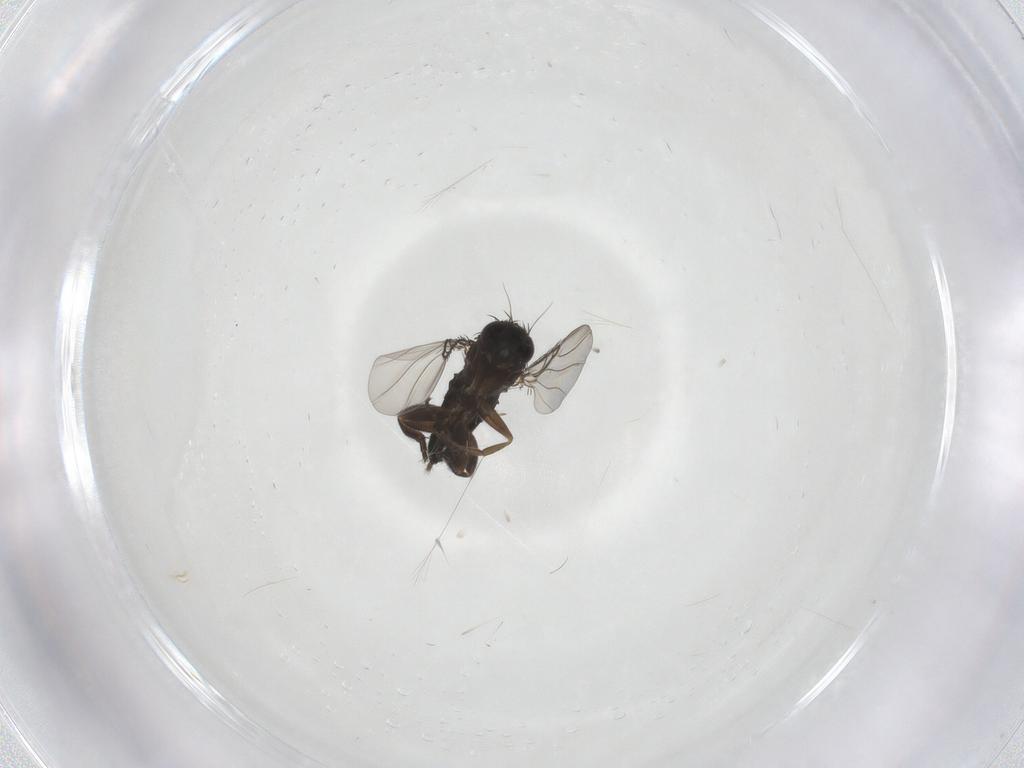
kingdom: Animalia
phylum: Arthropoda
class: Insecta
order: Diptera
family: Phoridae
